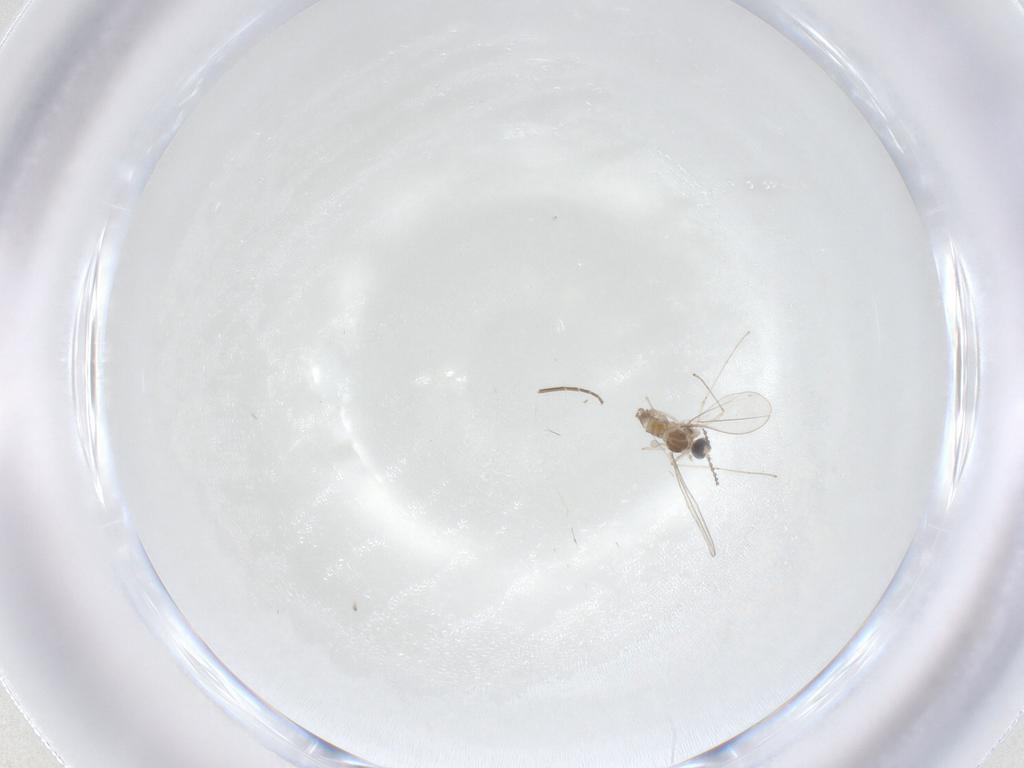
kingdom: Animalia
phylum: Arthropoda
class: Insecta
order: Diptera
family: Cecidomyiidae
